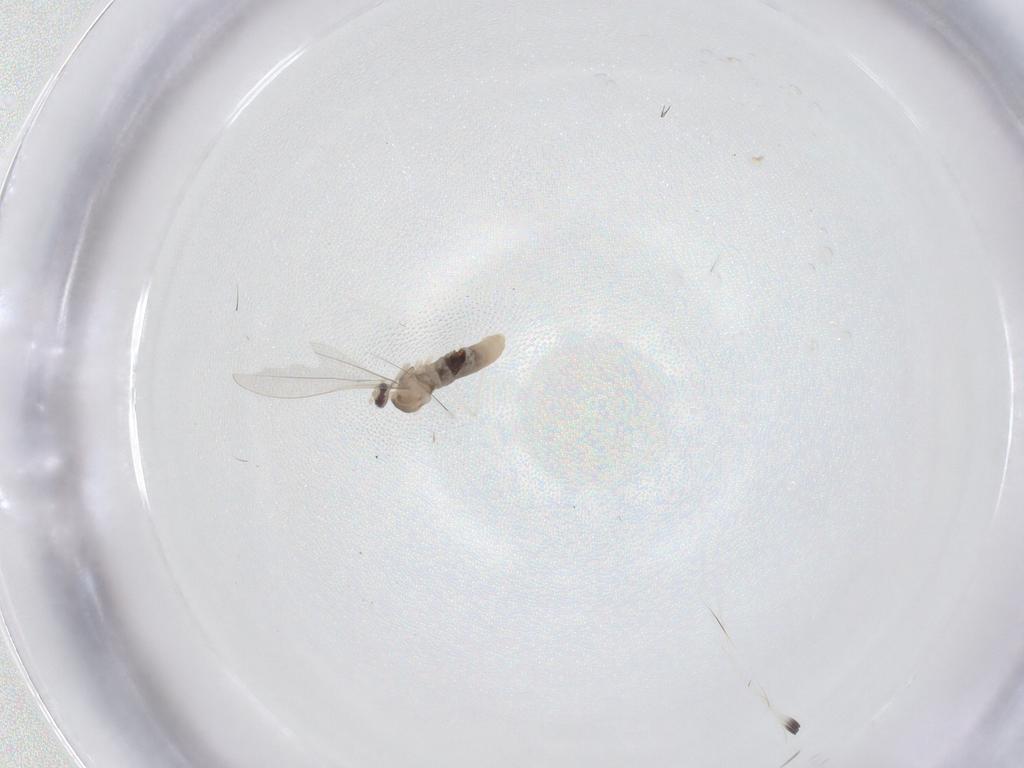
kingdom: Animalia
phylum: Arthropoda
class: Insecta
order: Diptera
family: Cecidomyiidae
